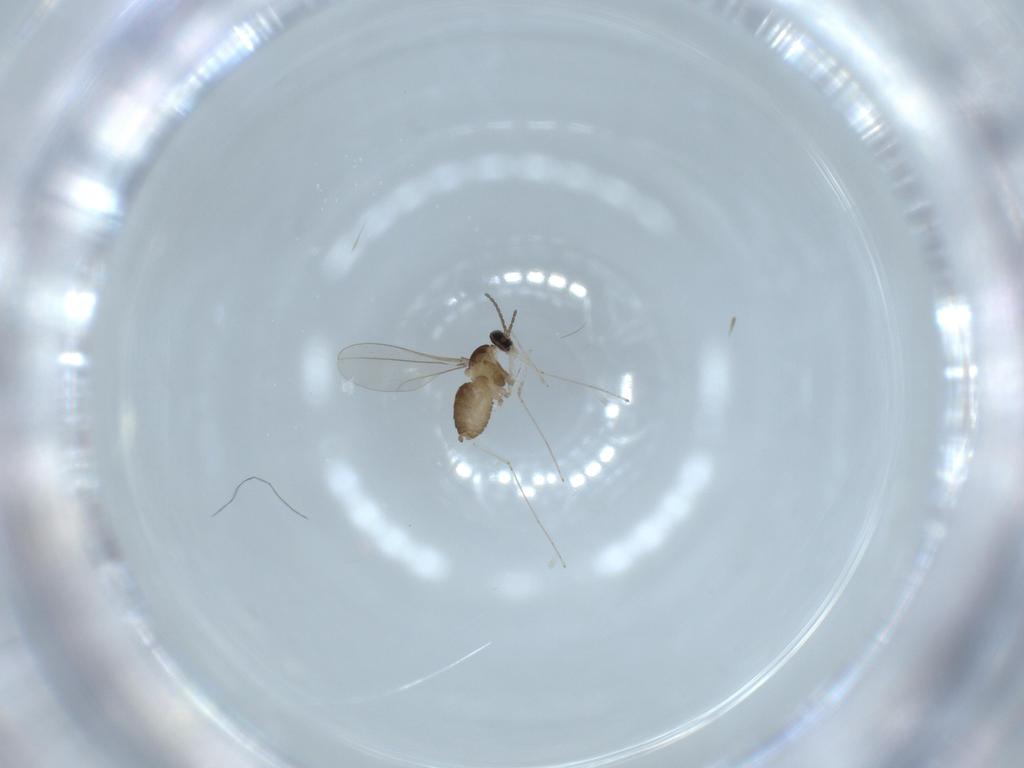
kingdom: Animalia
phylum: Arthropoda
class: Insecta
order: Diptera
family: Cecidomyiidae
